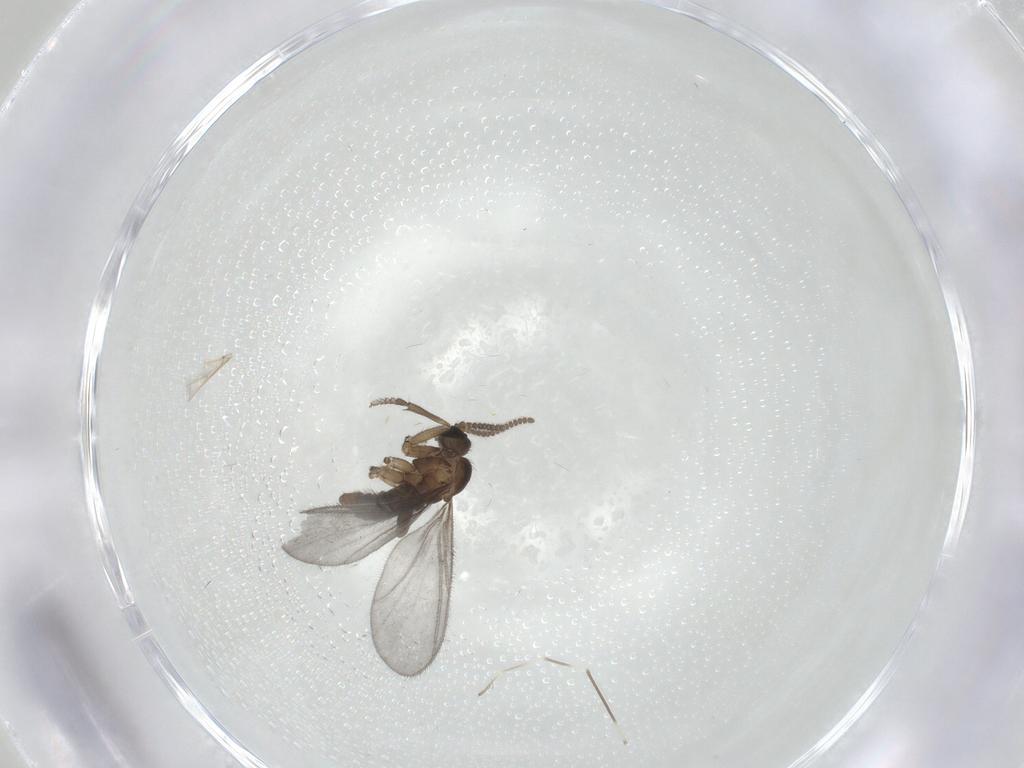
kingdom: Animalia
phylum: Arthropoda
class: Insecta
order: Diptera
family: Sciaridae
